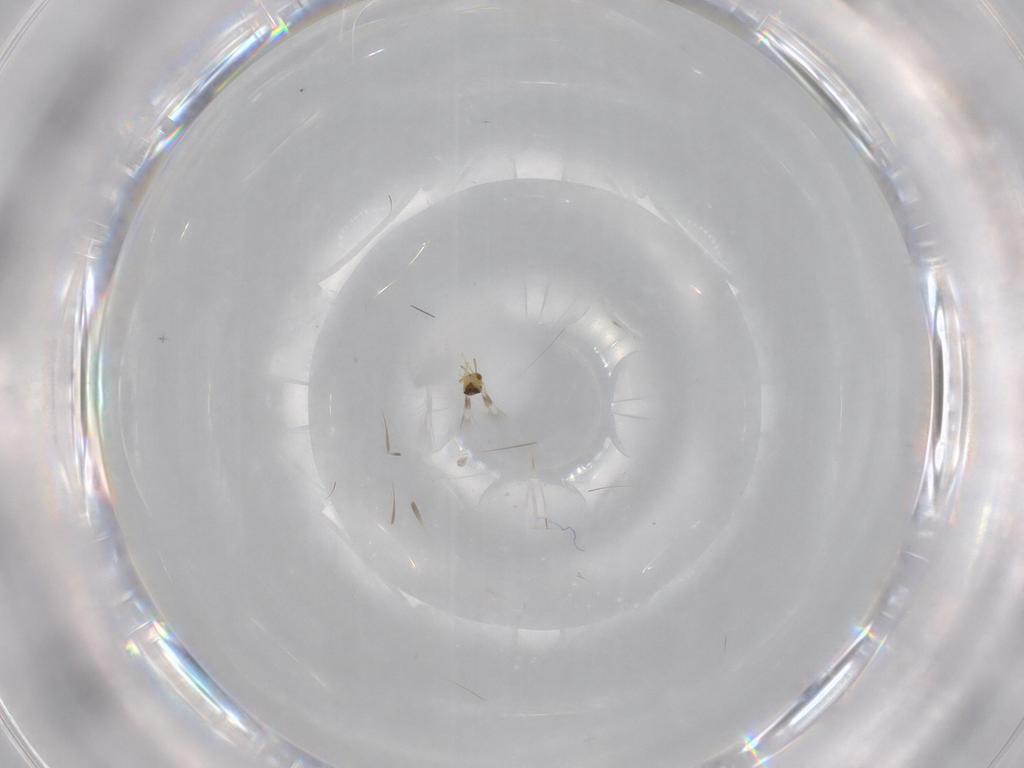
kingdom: Animalia
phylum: Arthropoda
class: Insecta
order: Hymenoptera
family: Signiphoridae
